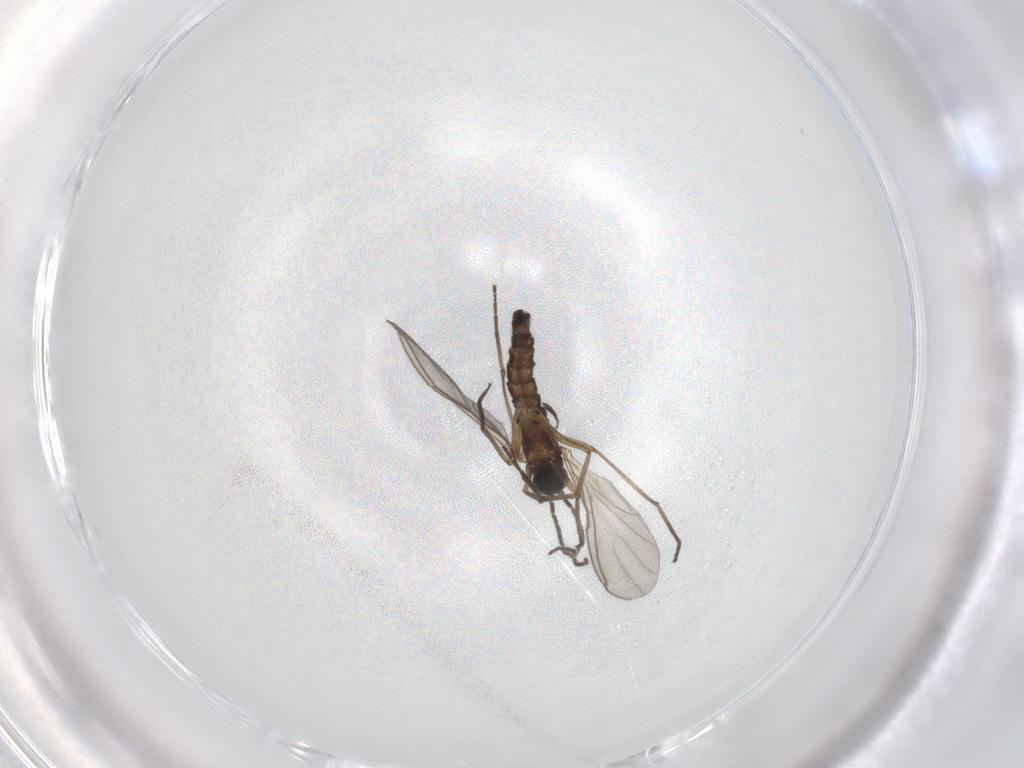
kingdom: Animalia
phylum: Arthropoda
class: Insecta
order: Diptera
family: Sciaridae
